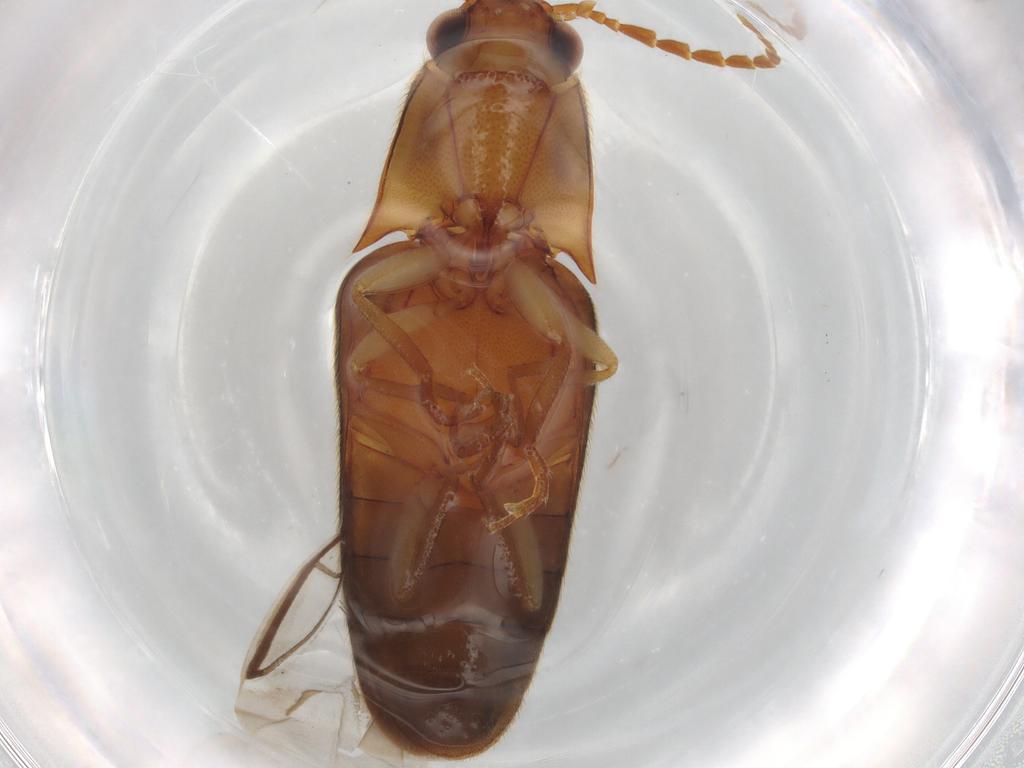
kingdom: Animalia
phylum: Arthropoda
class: Insecta
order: Coleoptera
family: Elateridae
